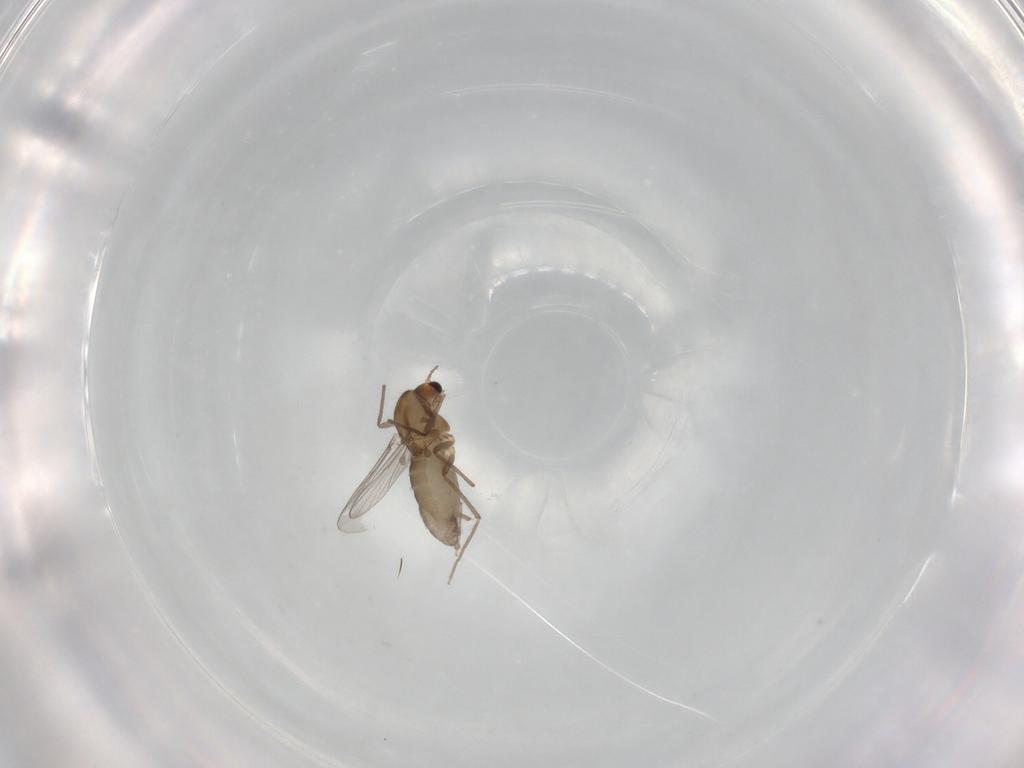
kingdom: Animalia
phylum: Arthropoda
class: Insecta
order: Diptera
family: Chironomidae
